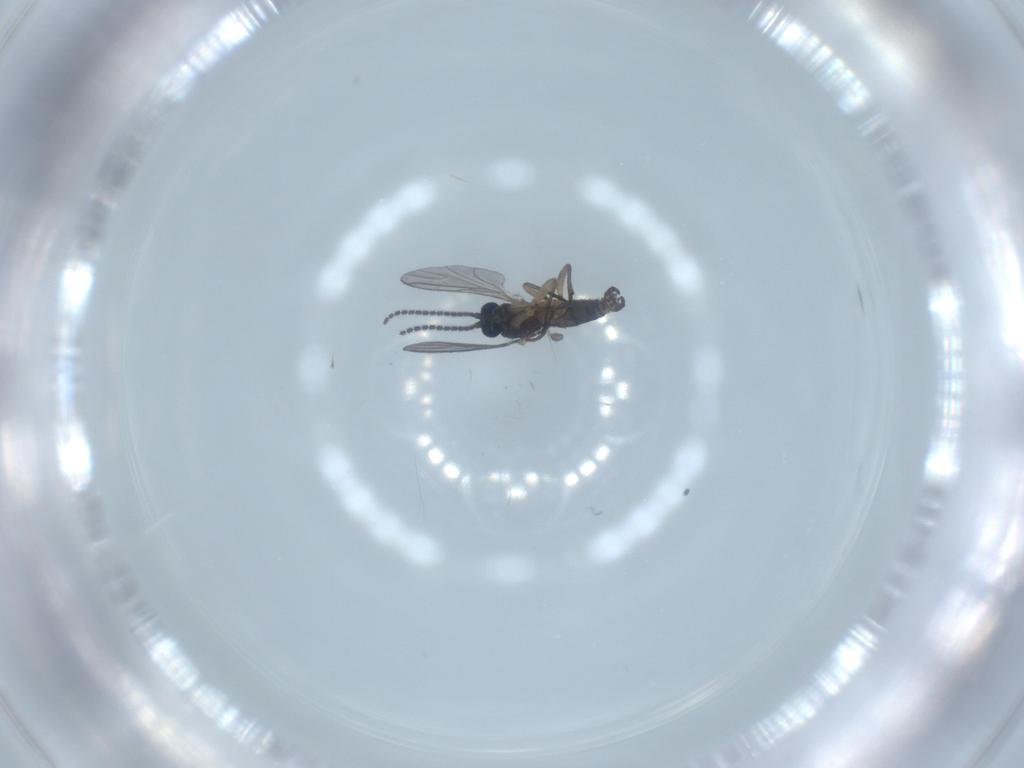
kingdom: Animalia
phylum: Arthropoda
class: Insecta
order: Diptera
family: Sciaridae
